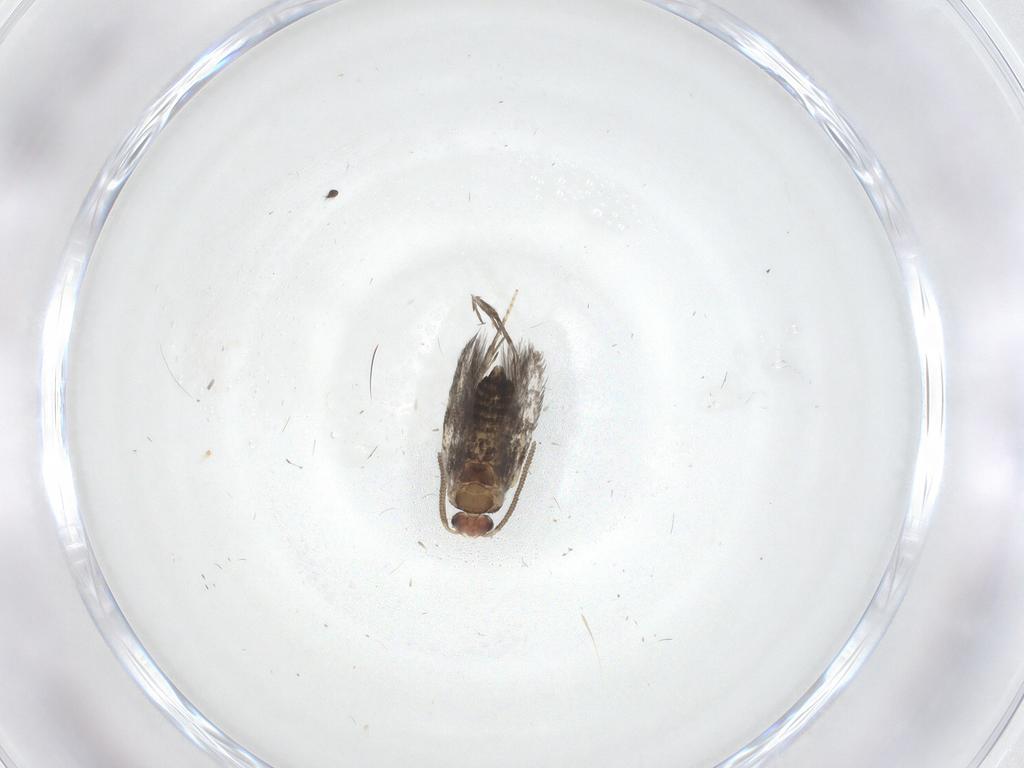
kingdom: Animalia
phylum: Arthropoda
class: Insecta
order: Lepidoptera
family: Nepticulidae
